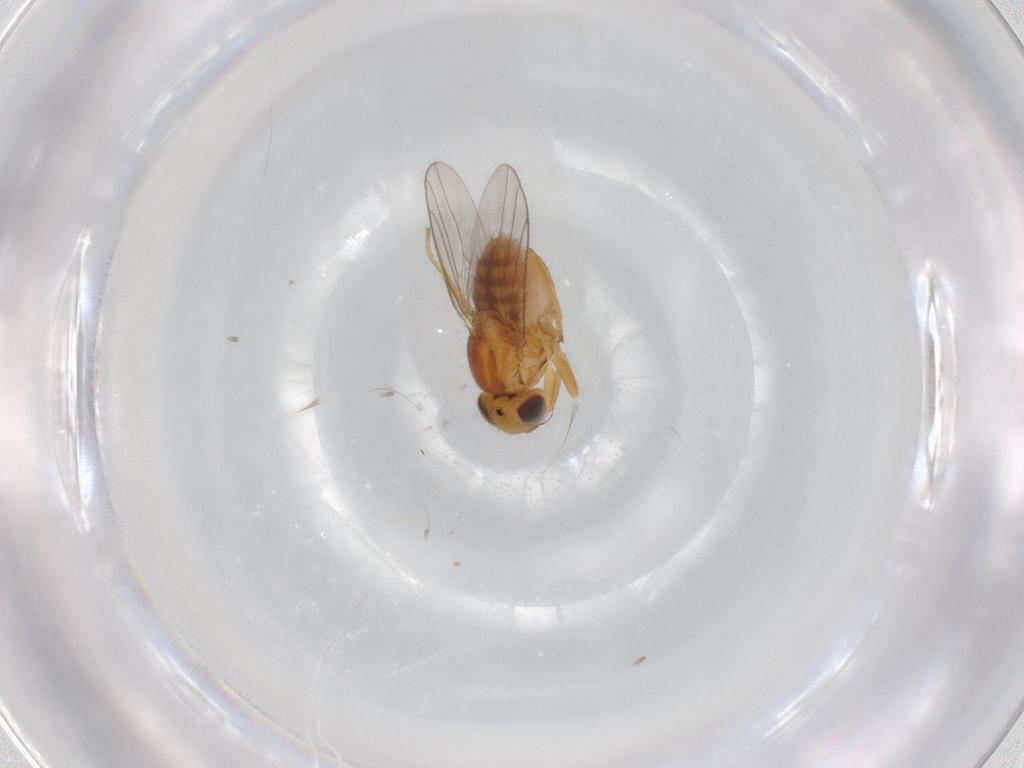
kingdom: Animalia
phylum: Arthropoda
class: Insecta
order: Diptera
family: Chloropidae
